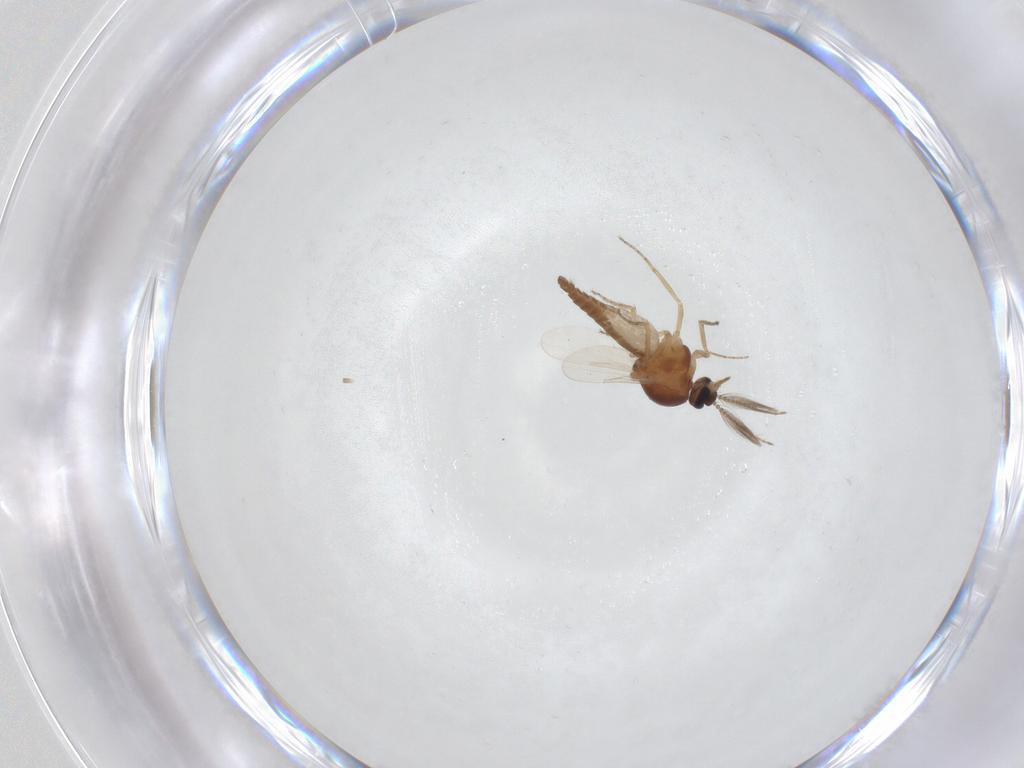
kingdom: Animalia
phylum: Arthropoda
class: Insecta
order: Diptera
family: Ceratopogonidae
